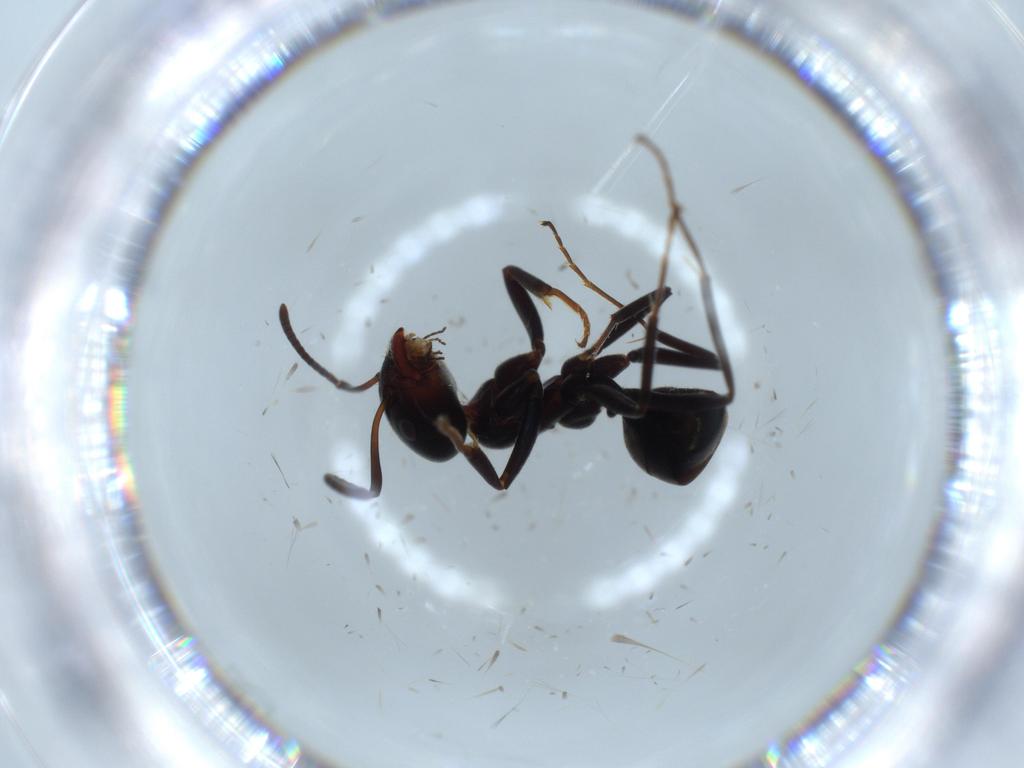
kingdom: Animalia
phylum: Arthropoda
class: Insecta
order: Hymenoptera
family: Formicidae
